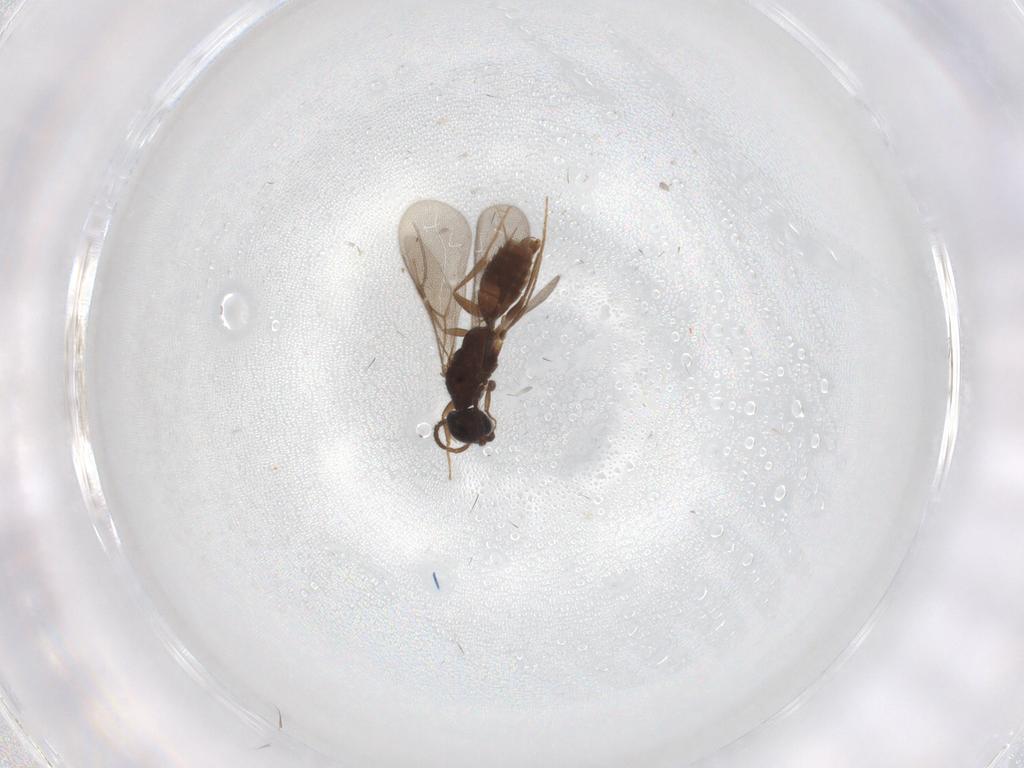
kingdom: Animalia
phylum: Arthropoda
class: Insecta
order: Hymenoptera
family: Bethylidae
